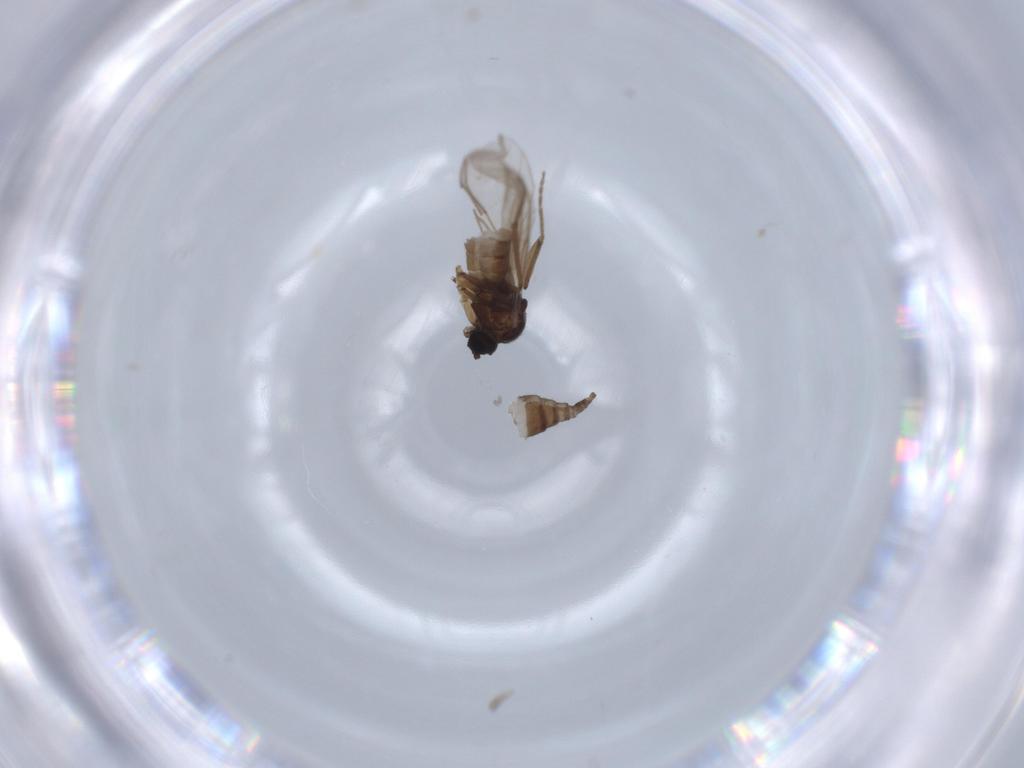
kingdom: Animalia
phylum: Arthropoda
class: Insecta
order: Diptera
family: Empididae
